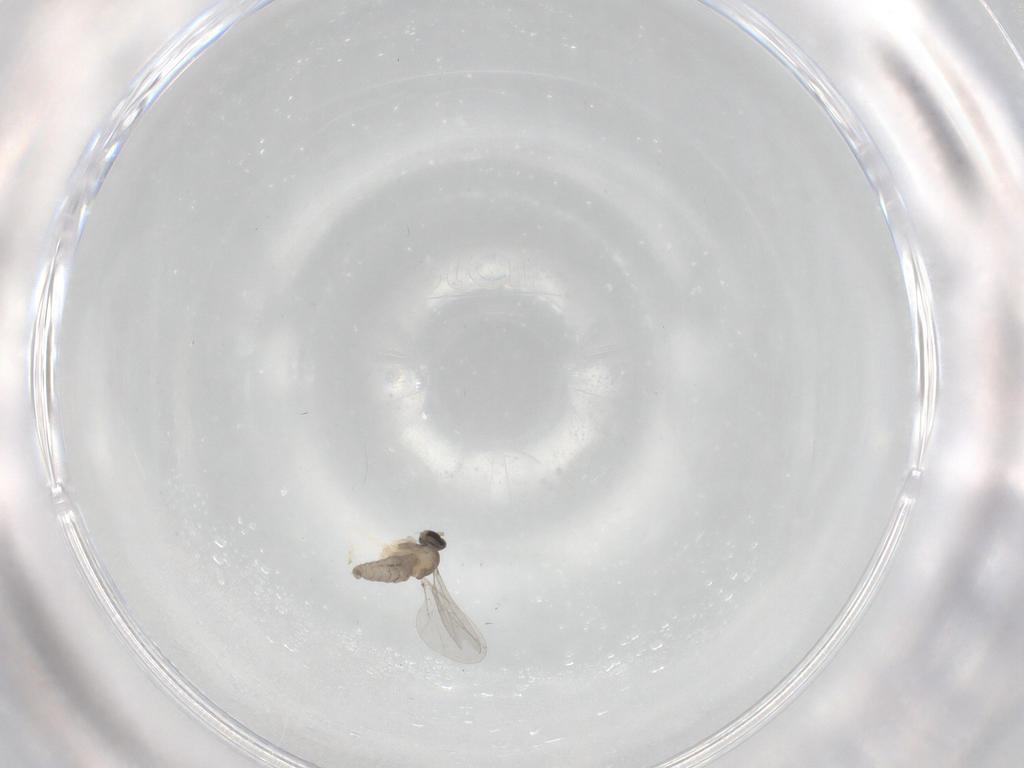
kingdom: Animalia
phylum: Arthropoda
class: Insecta
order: Diptera
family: Cecidomyiidae
